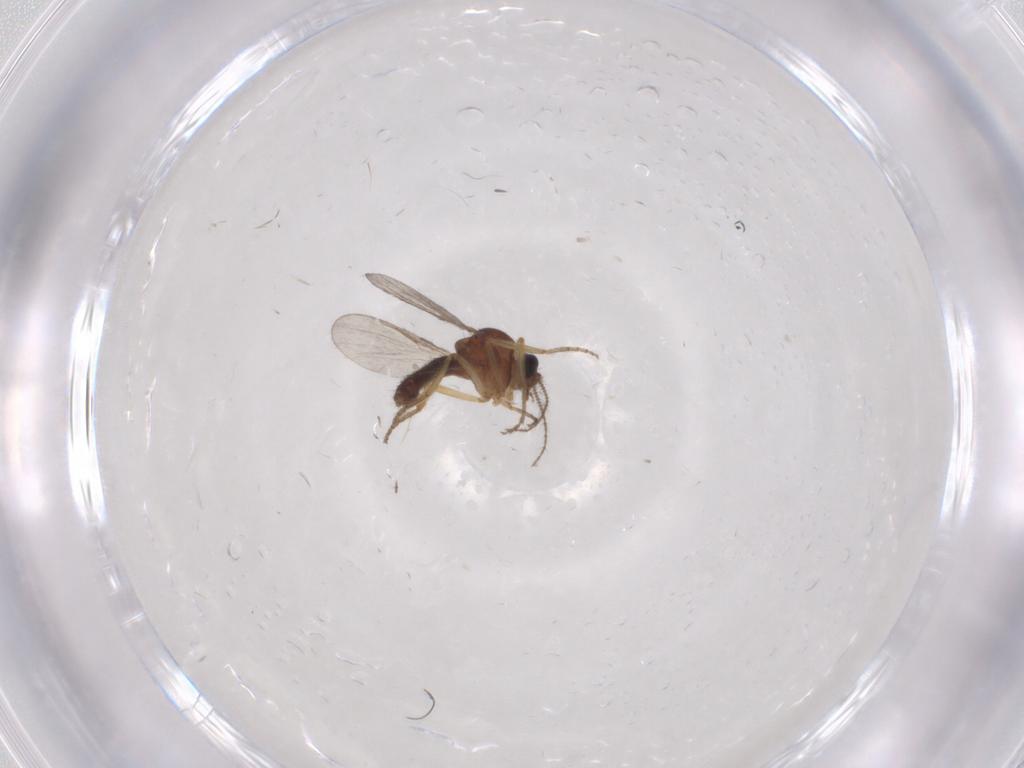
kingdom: Animalia
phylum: Arthropoda
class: Insecta
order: Diptera
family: Ceratopogonidae
